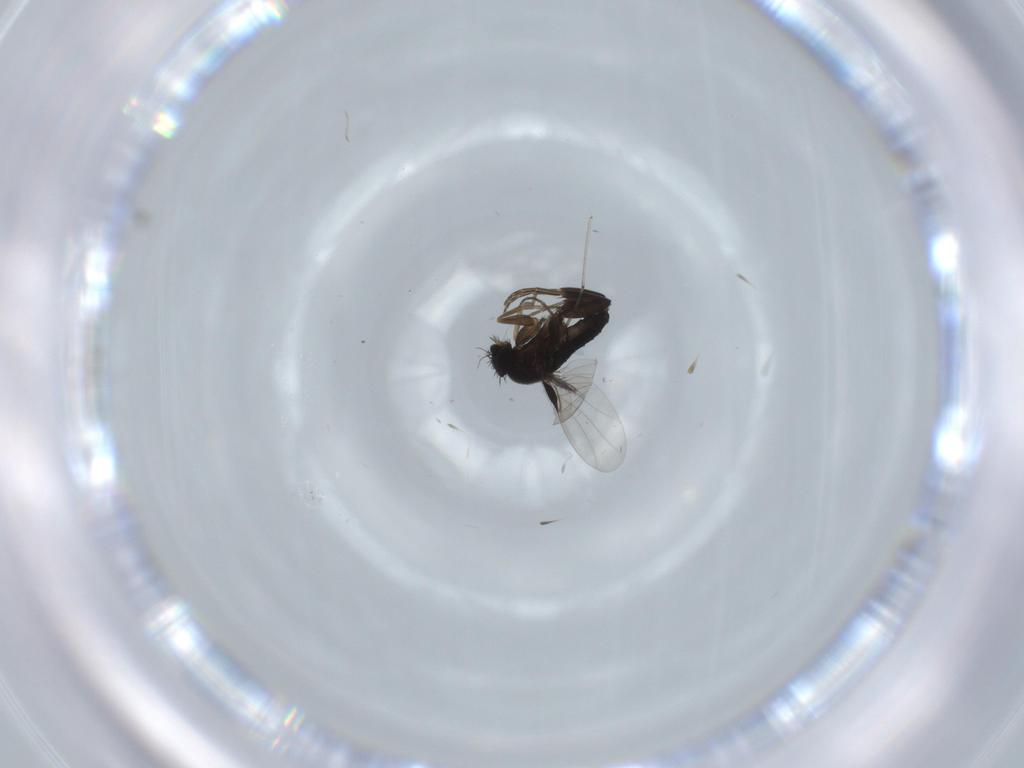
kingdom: Animalia
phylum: Arthropoda
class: Insecta
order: Diptera
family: Phoridae
